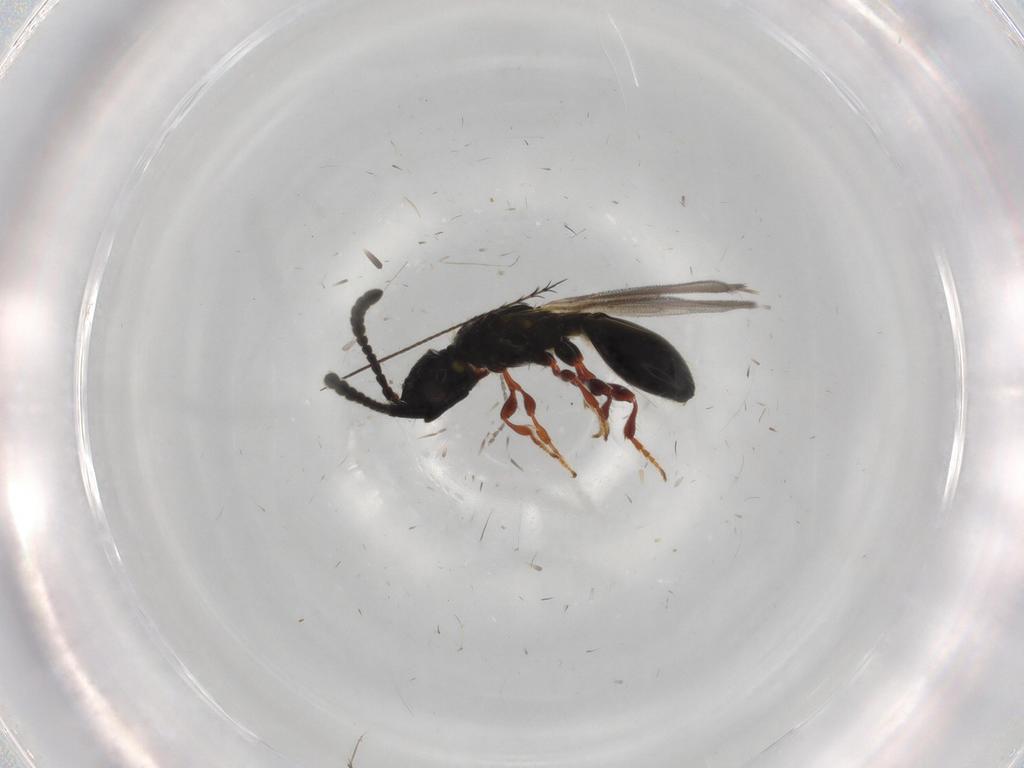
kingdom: Animalia
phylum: Arthropoda
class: Insecta
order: Hymenoptera
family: Diapriidae
